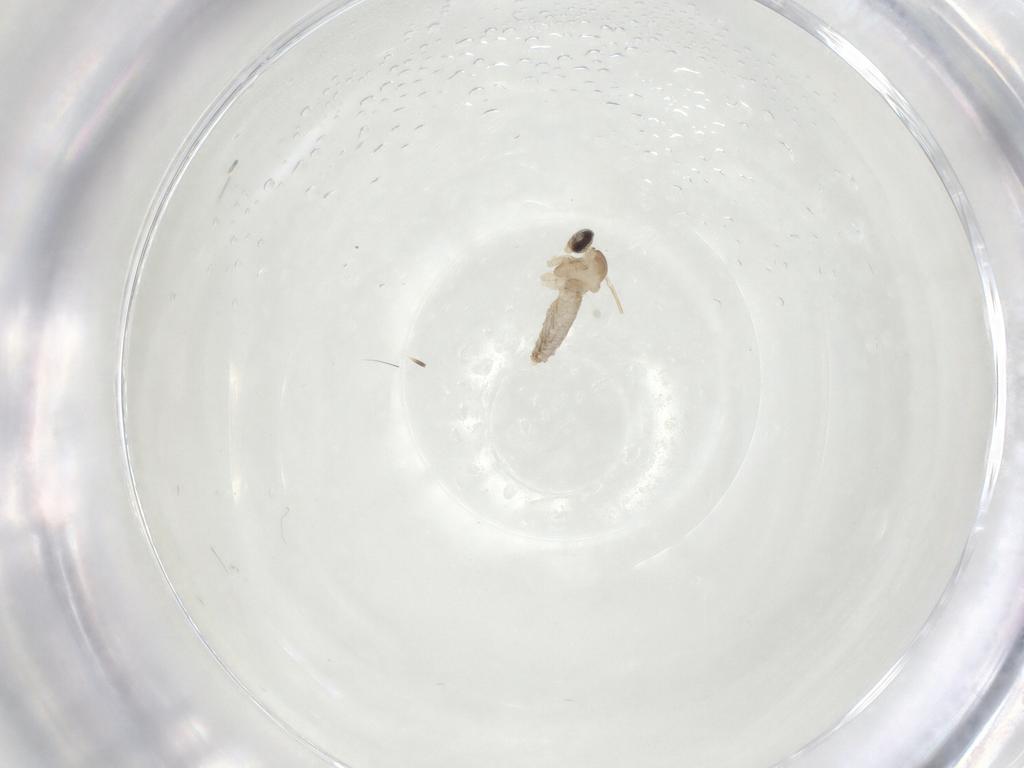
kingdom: Animalia
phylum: Arthropoda
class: Insecta
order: Diptera
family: Cecidomyiidae
